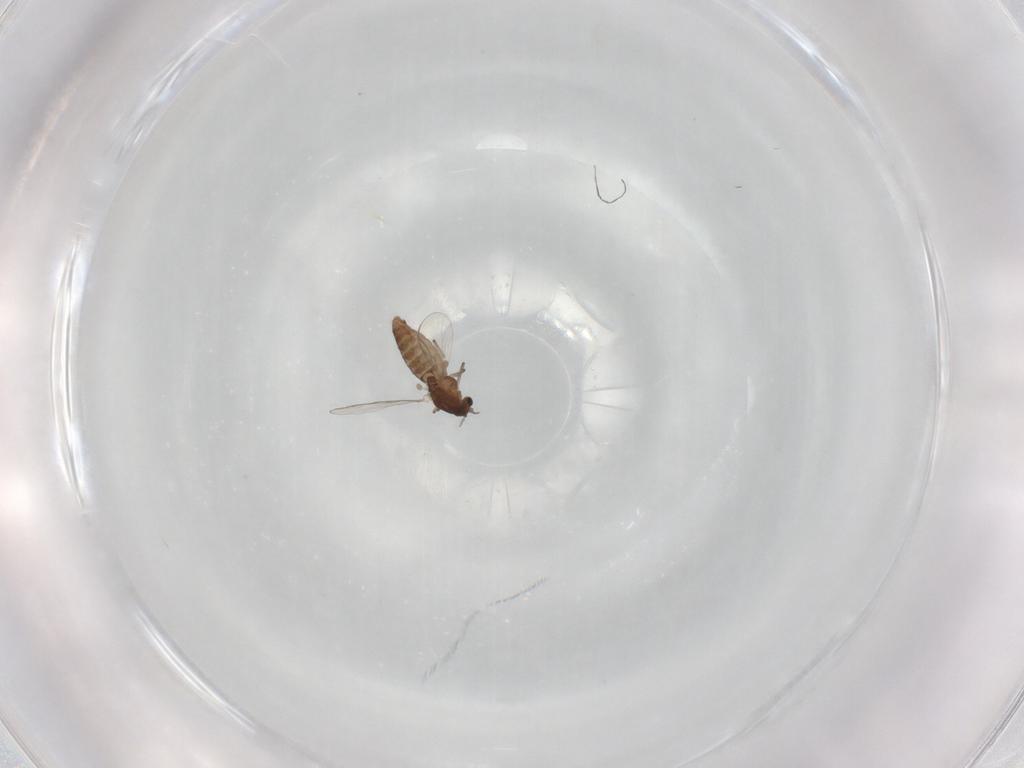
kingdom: Animalia
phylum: Arthropoda
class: Insecta
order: Diptera
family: Chironomidae
